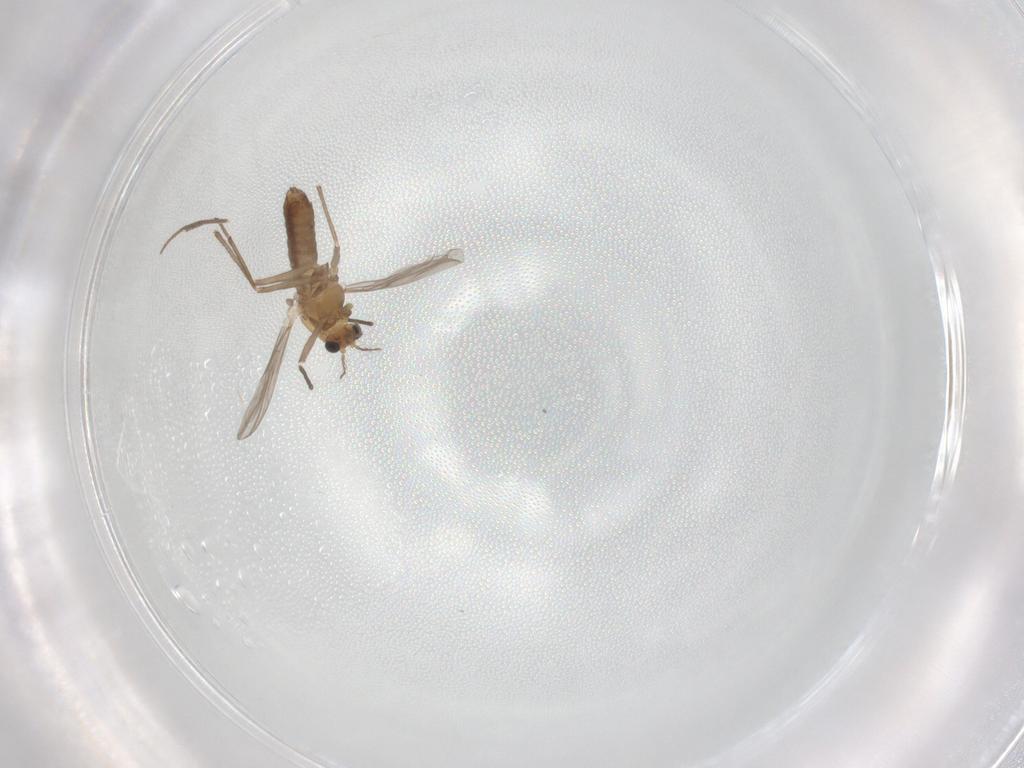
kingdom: Animalia
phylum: Arthropoda
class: Insecta
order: Diptera
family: Chironomidae
